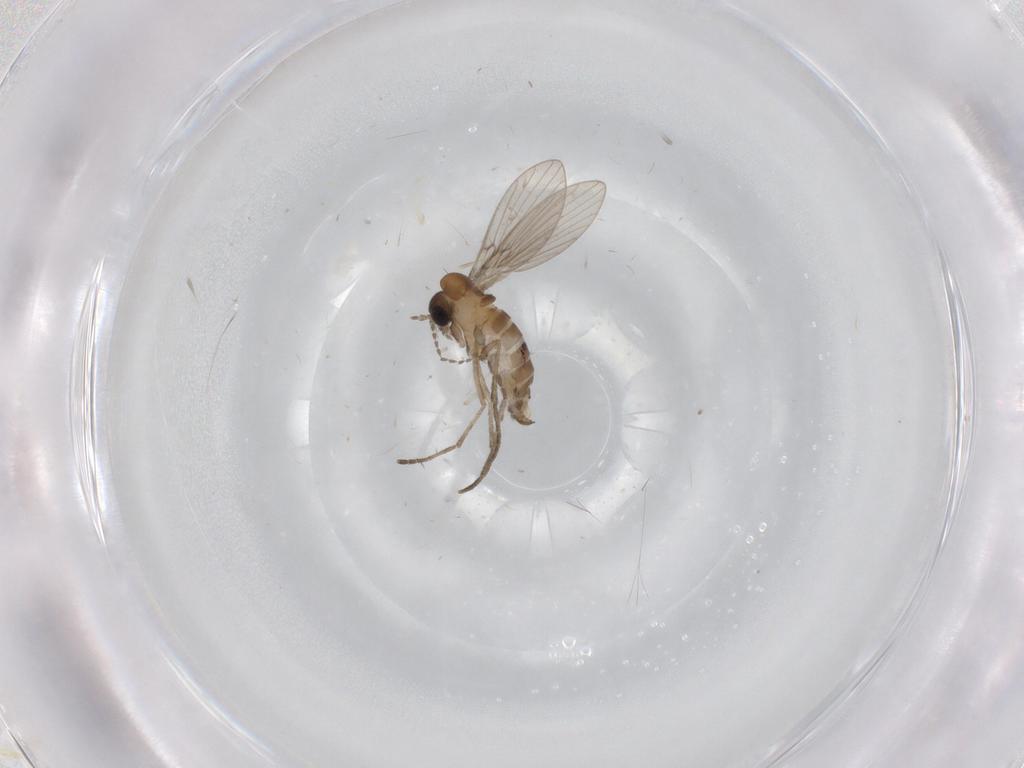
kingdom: Animalia
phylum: Arthropoda
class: Insecta
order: Diptera
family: Psychodidae
